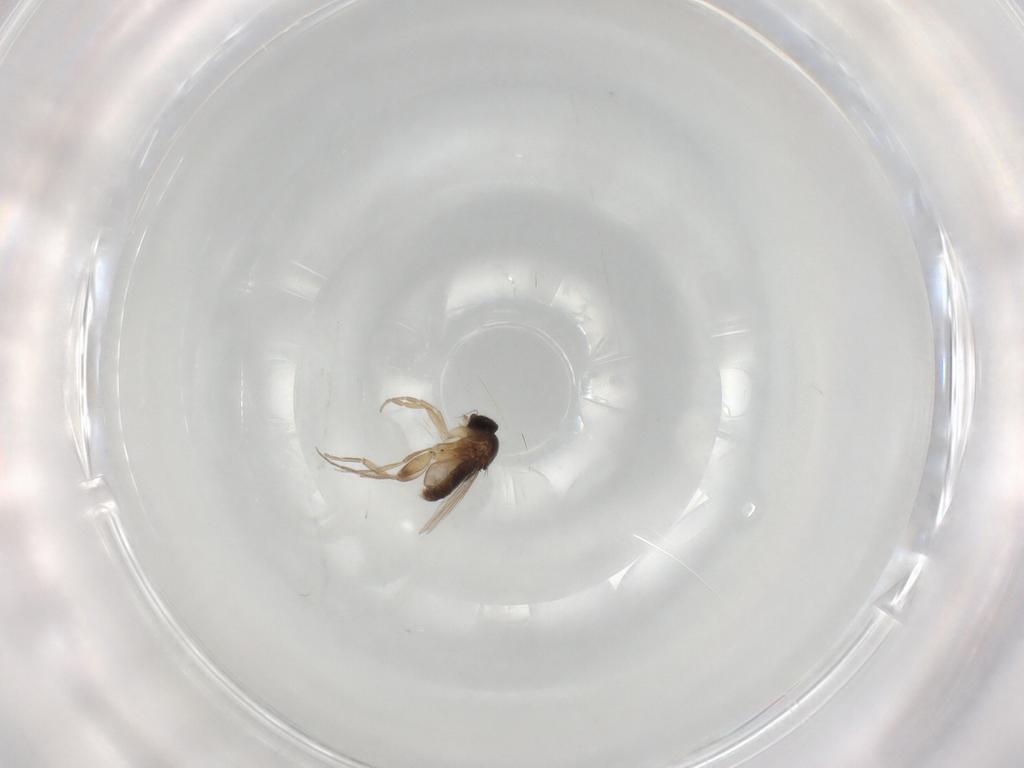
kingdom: Animalia
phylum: Arthropoda
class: Insecta
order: Diptera
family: Phoridae
